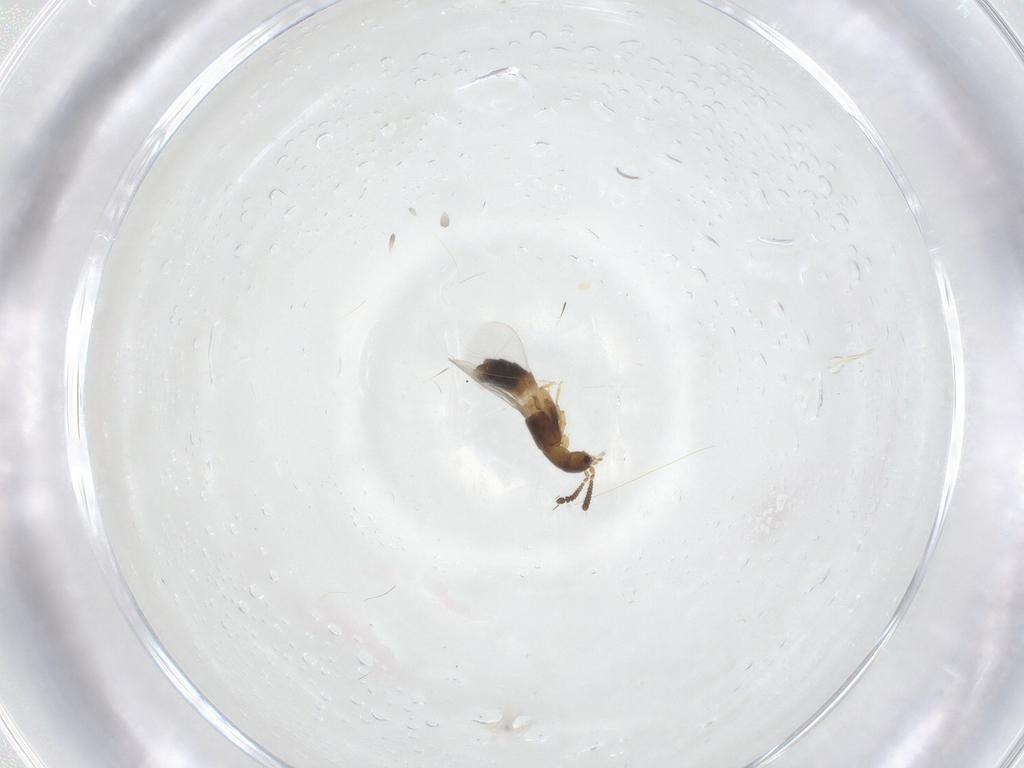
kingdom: Animalia
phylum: Arthropoda
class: Insecta
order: Coleoptera
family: Staphylinidae
